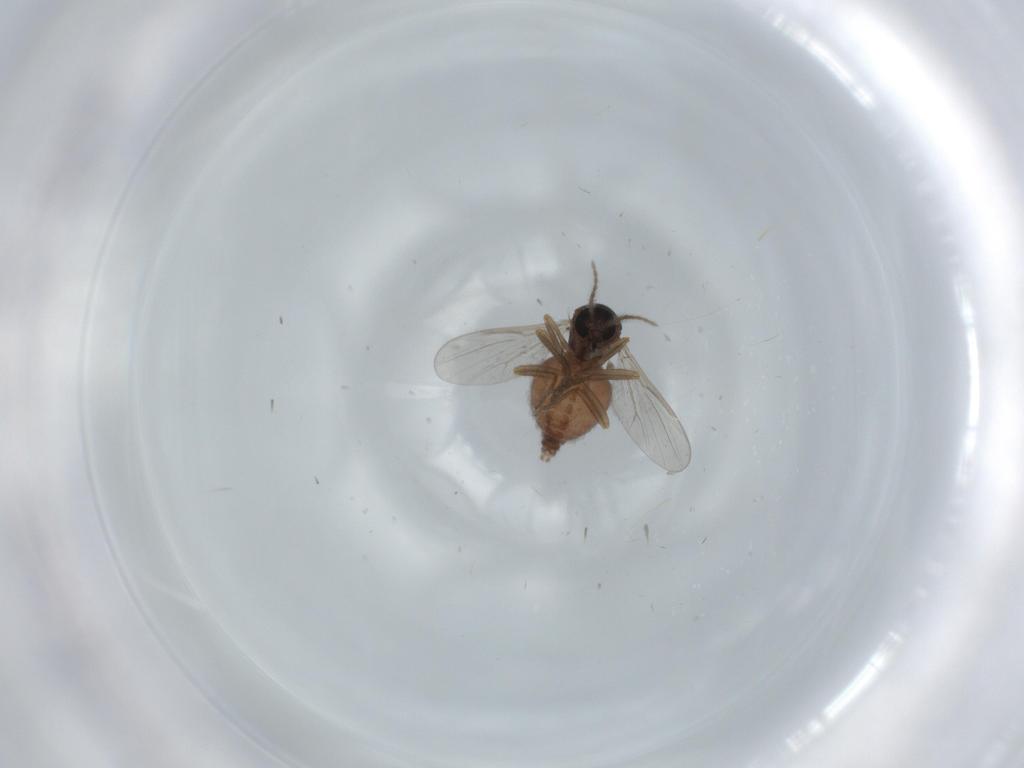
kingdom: Animalia
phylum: Arthropoda
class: Insecta
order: Diptera
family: Ceratopogonidae
